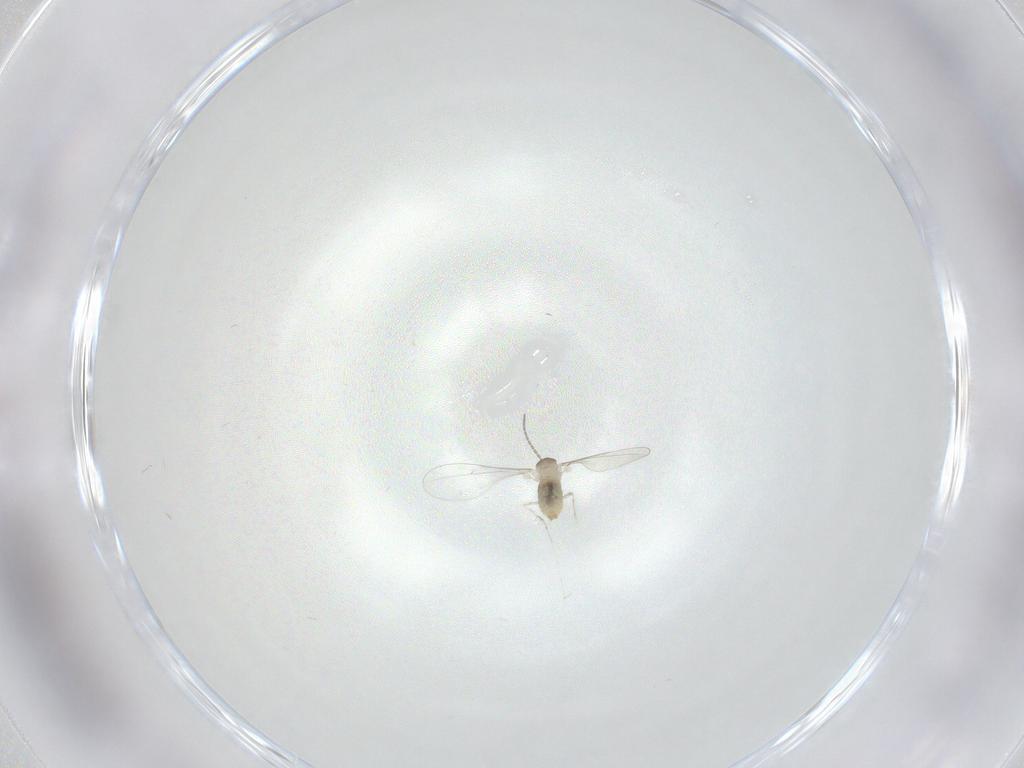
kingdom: Animalia
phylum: Arthropoda
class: Insecta
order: Diptera
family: Cecidomyiidae
